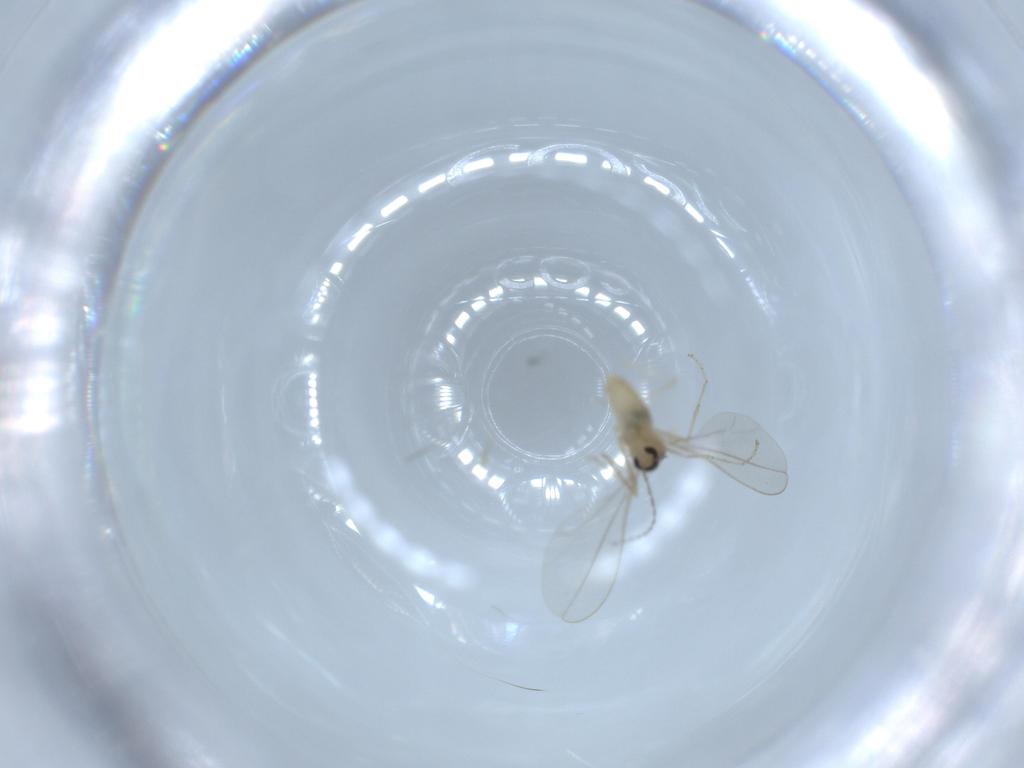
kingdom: Animalia
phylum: Arthropoda
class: Insecta
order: Diptera
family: Cecidomyiidae
